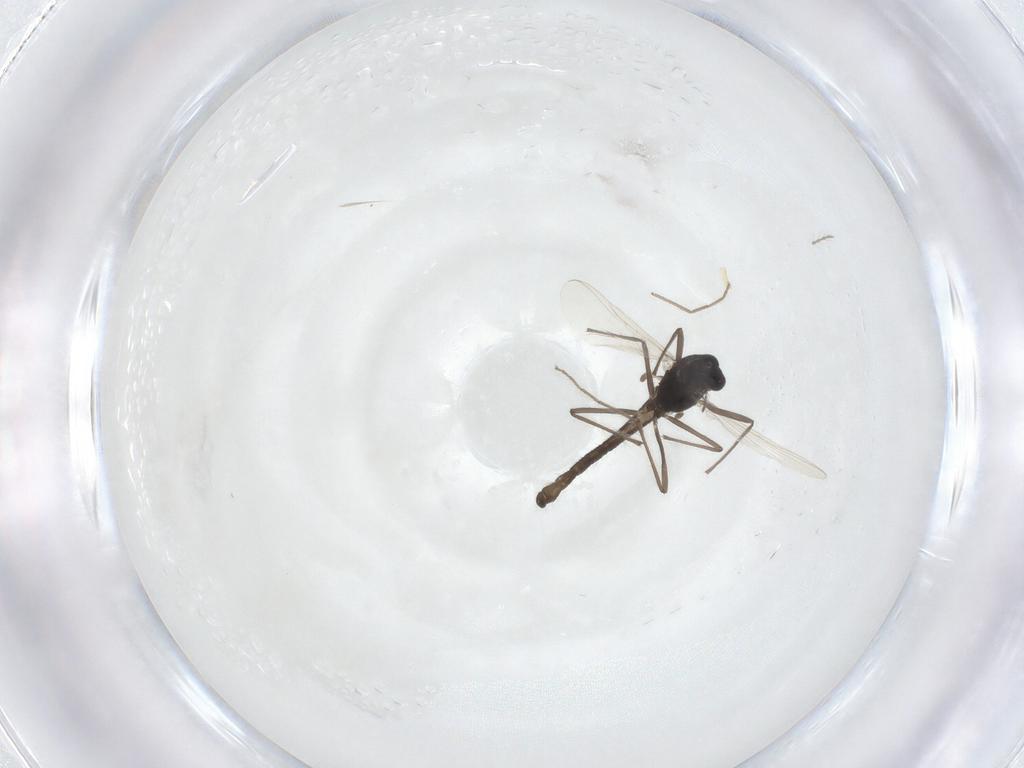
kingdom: Animalia
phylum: Arthropoda
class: Insecta
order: Diptera
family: Chironomidae
